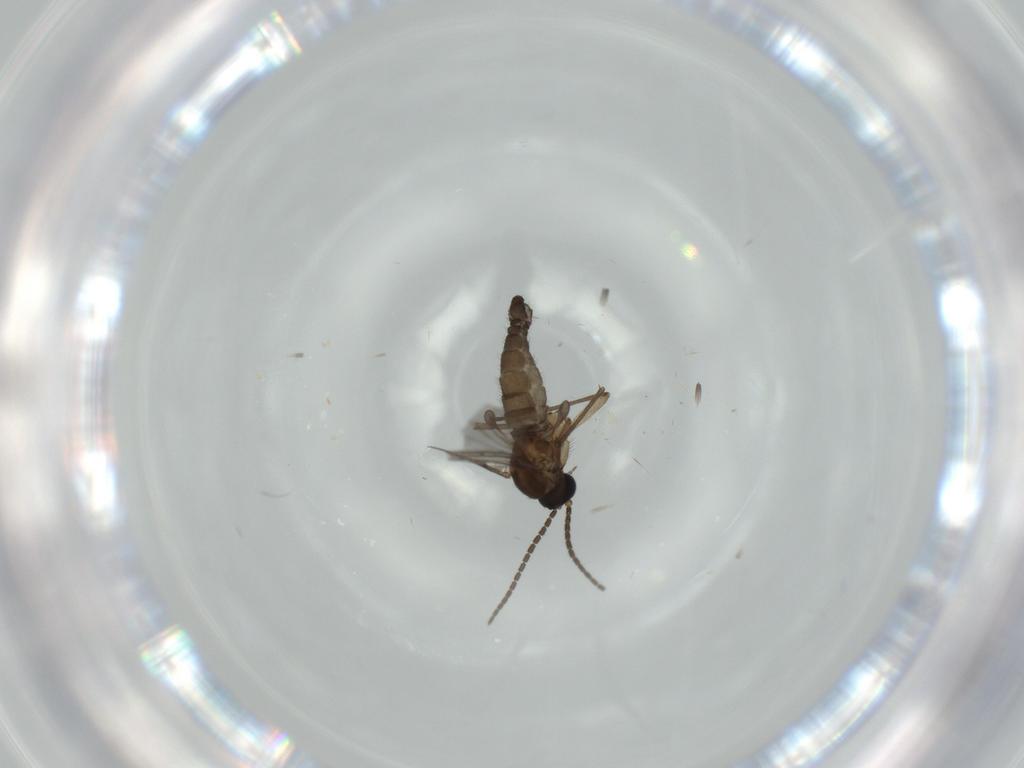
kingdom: Animalia
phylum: Arthropoda
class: Insecta
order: Diptera
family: Sciaridae
